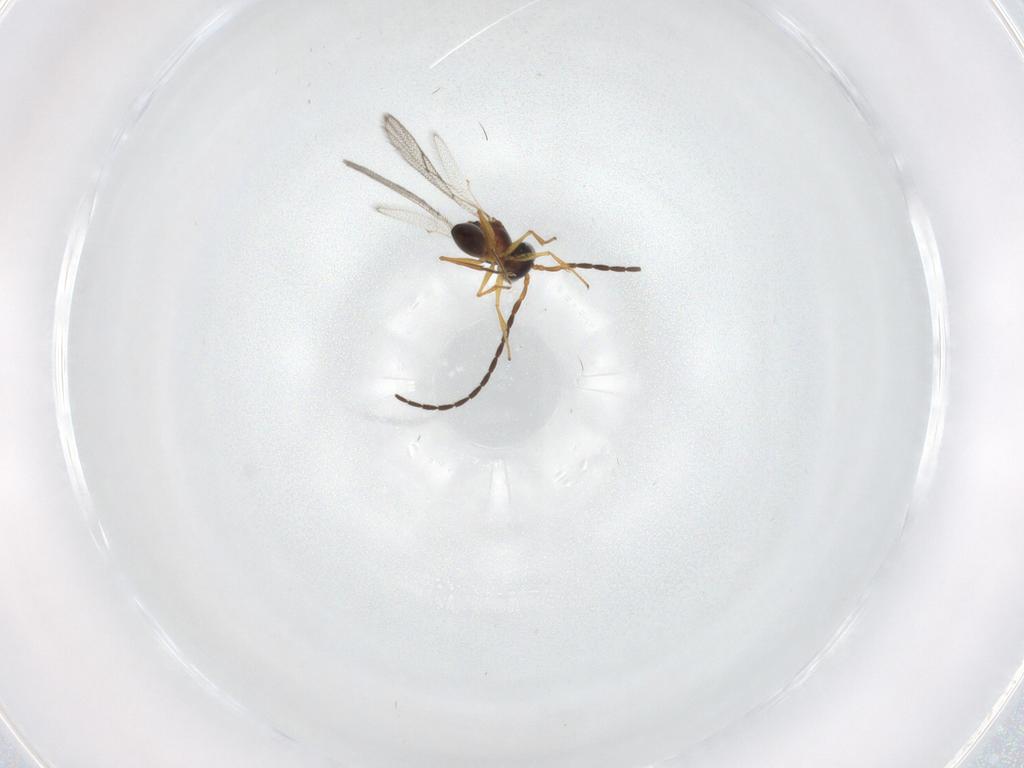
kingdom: Animalia
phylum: Arthropoda
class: Insecta
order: Hymenoptera
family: Figitidae
